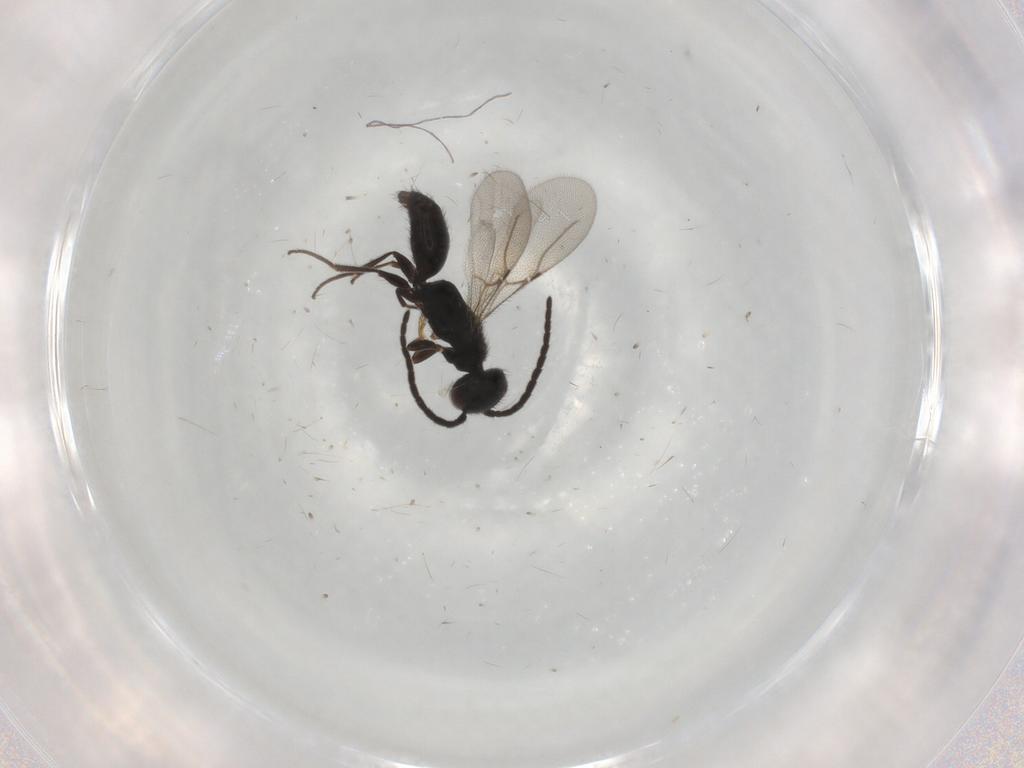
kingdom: Animalia
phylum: Arthropoda
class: Insecta
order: Hymenoptera
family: Bethylidae
